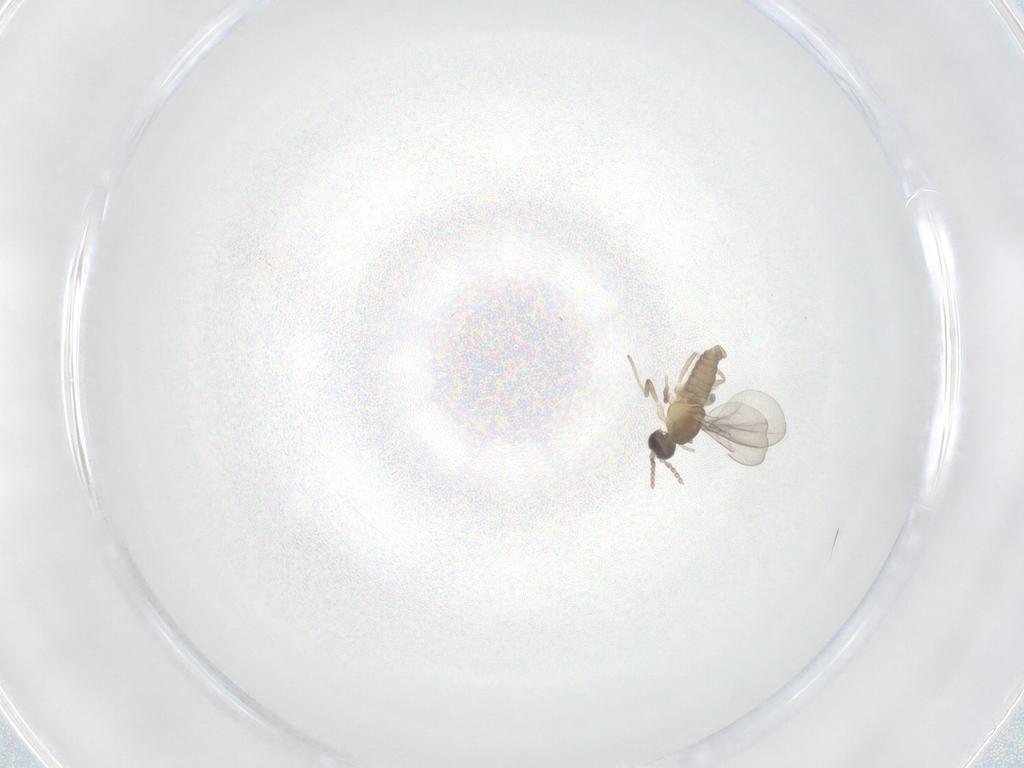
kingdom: Animalia
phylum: Arthropoda
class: Insecta
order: Diptera
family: Cecidomyiidae
